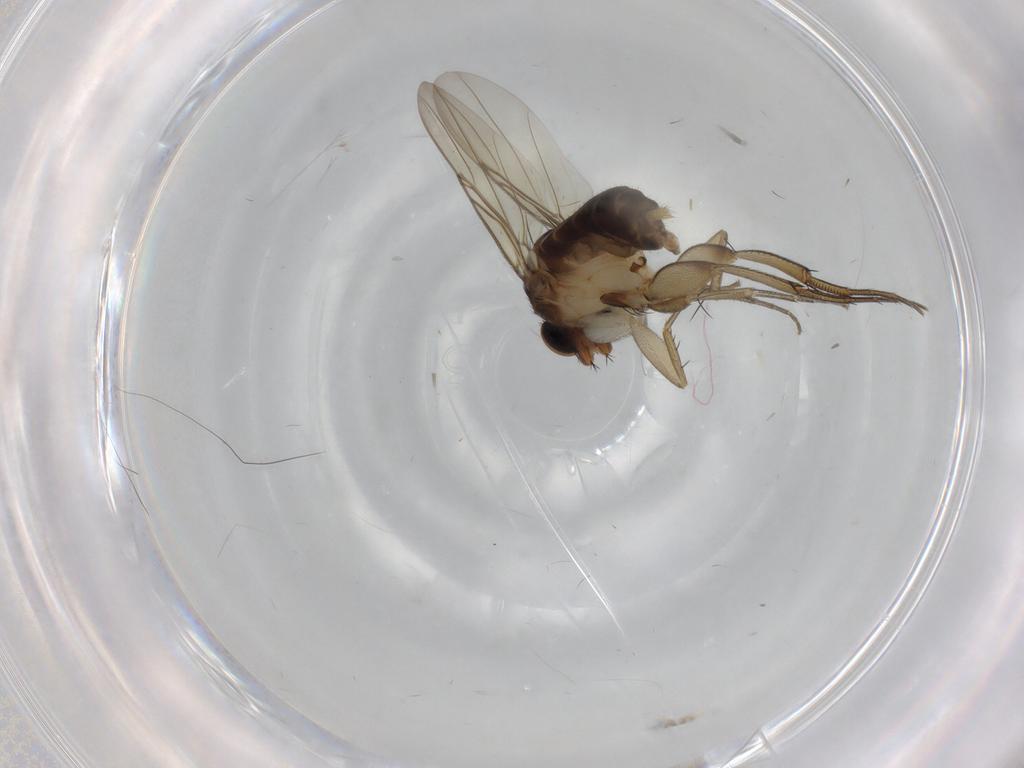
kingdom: Animalia
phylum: Arthropoda
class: Insecta
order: Diptera
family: Phoridae
